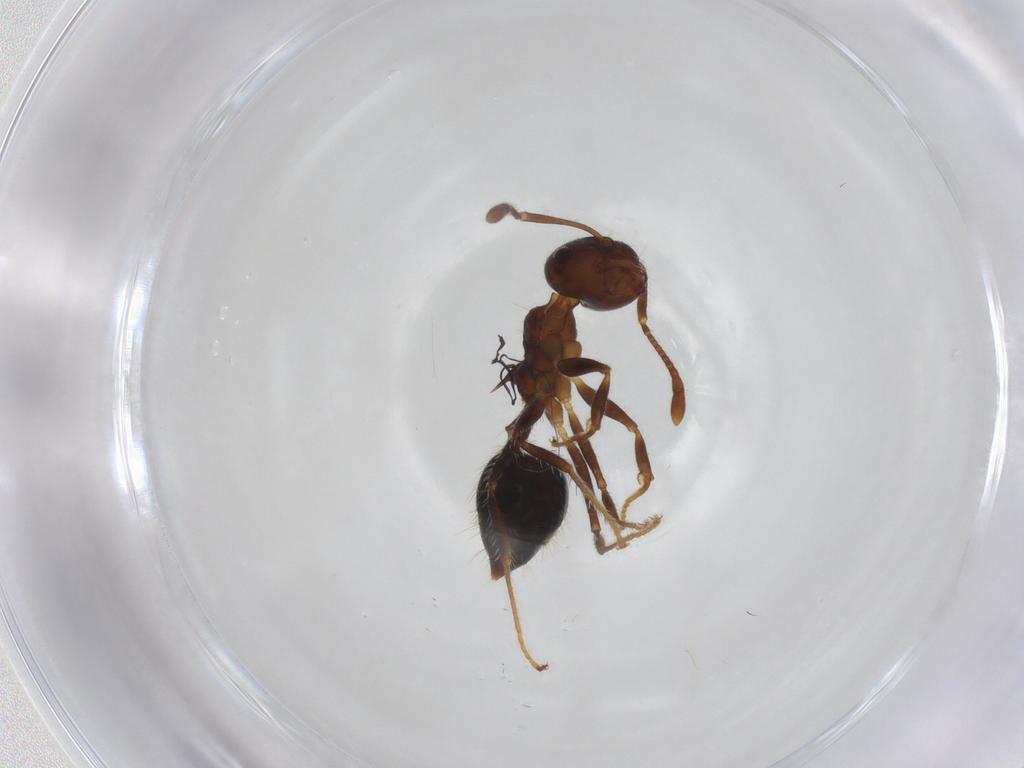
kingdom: Animalia
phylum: Arthropoda
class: Insecta
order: Hymenoptera
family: Formicidae
